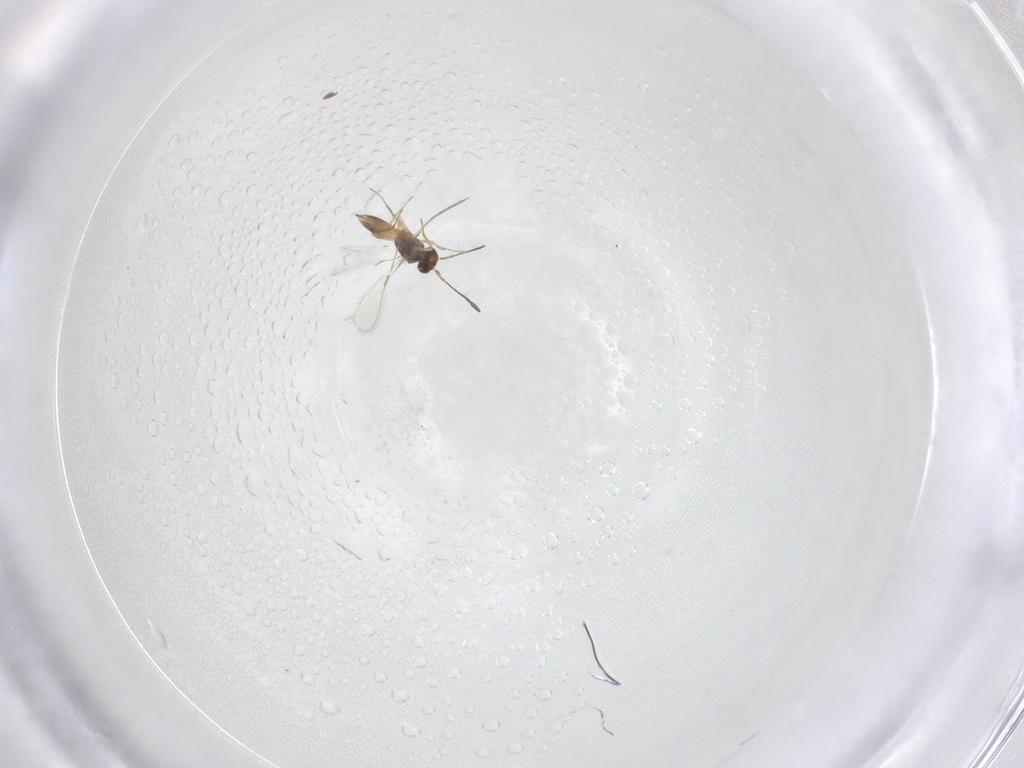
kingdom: Animalia
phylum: Arthropoda
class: Insecta
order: Hymenoptera
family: Mymaridae
